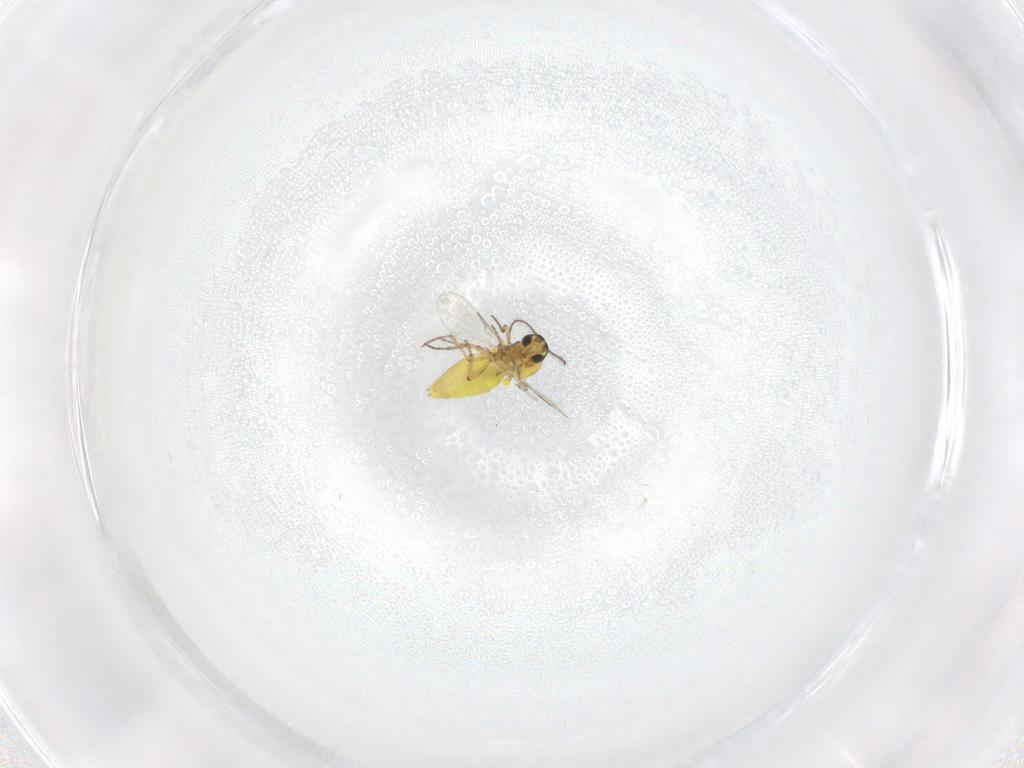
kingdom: Animalia
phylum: Arthropoda
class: Insecta
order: Diptera
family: Ceratopogonidae
